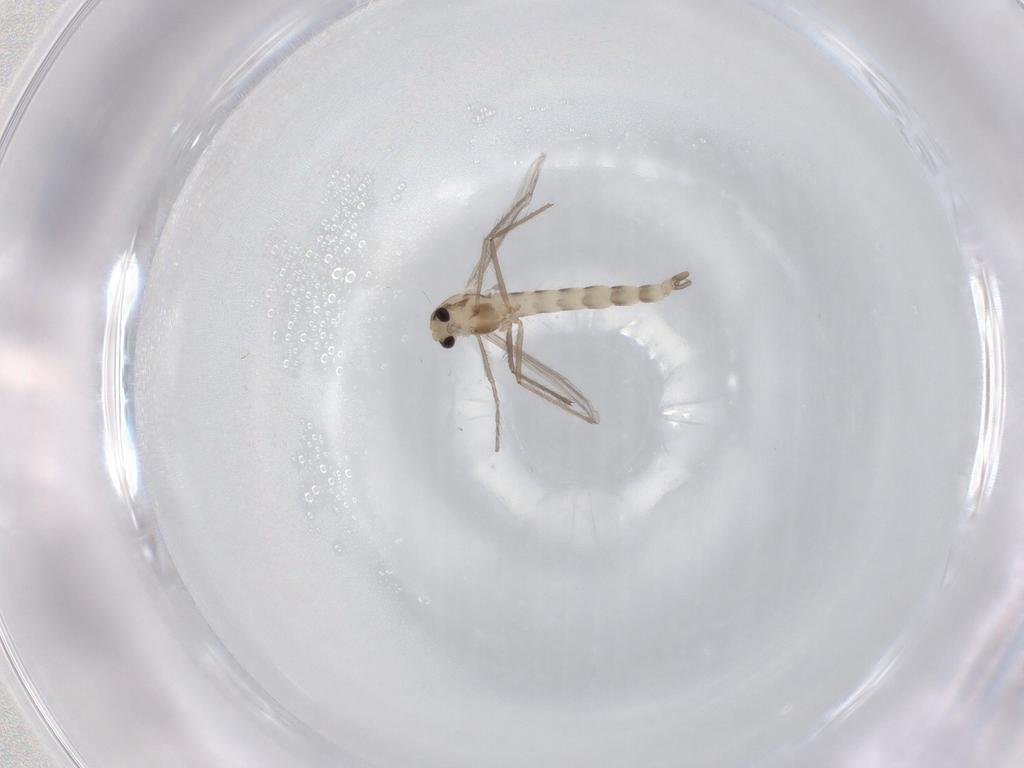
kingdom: Animalia
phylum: Arthropoda
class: Insecta
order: Diptera
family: Chironomidae
